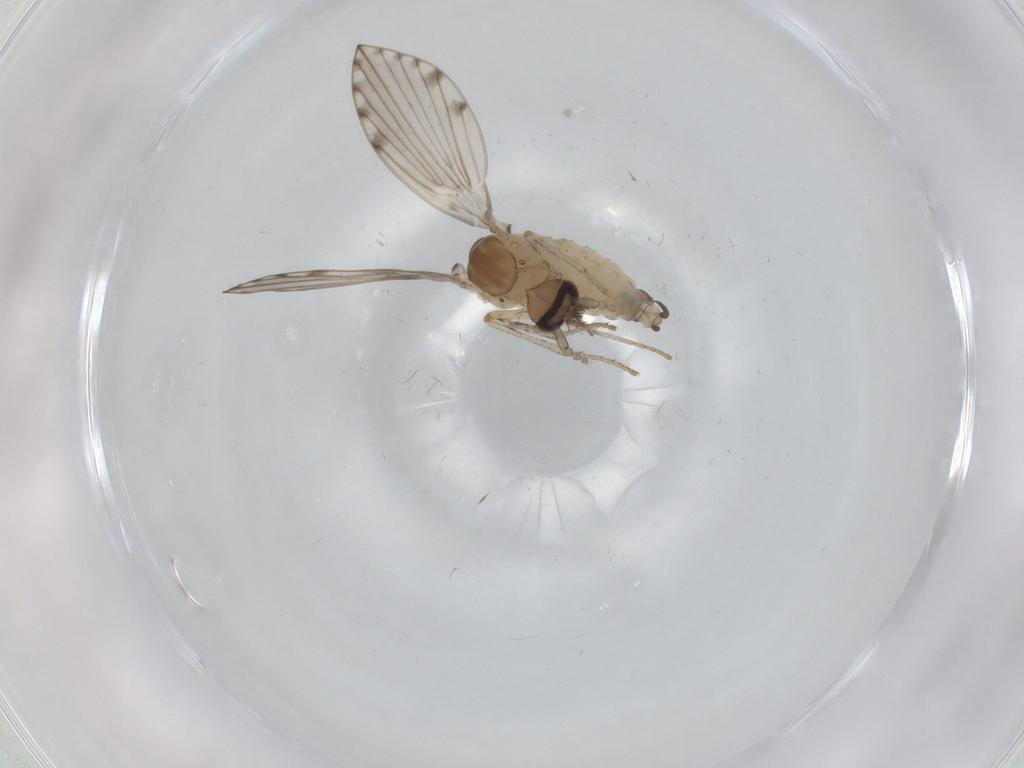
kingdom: Animalia
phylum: Arthropoda
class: Insecta
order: Diptera
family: Psychodidae
